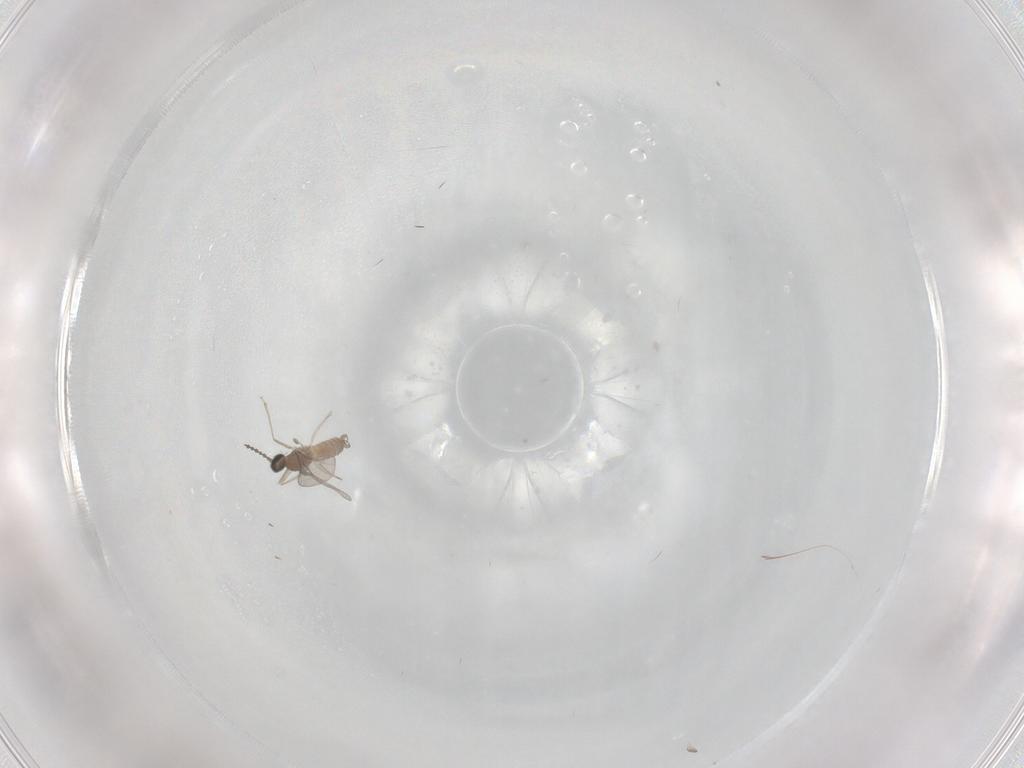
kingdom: Animalia
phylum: Arthropoda
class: Insecta
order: Diptera
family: Cecidomyiidae
